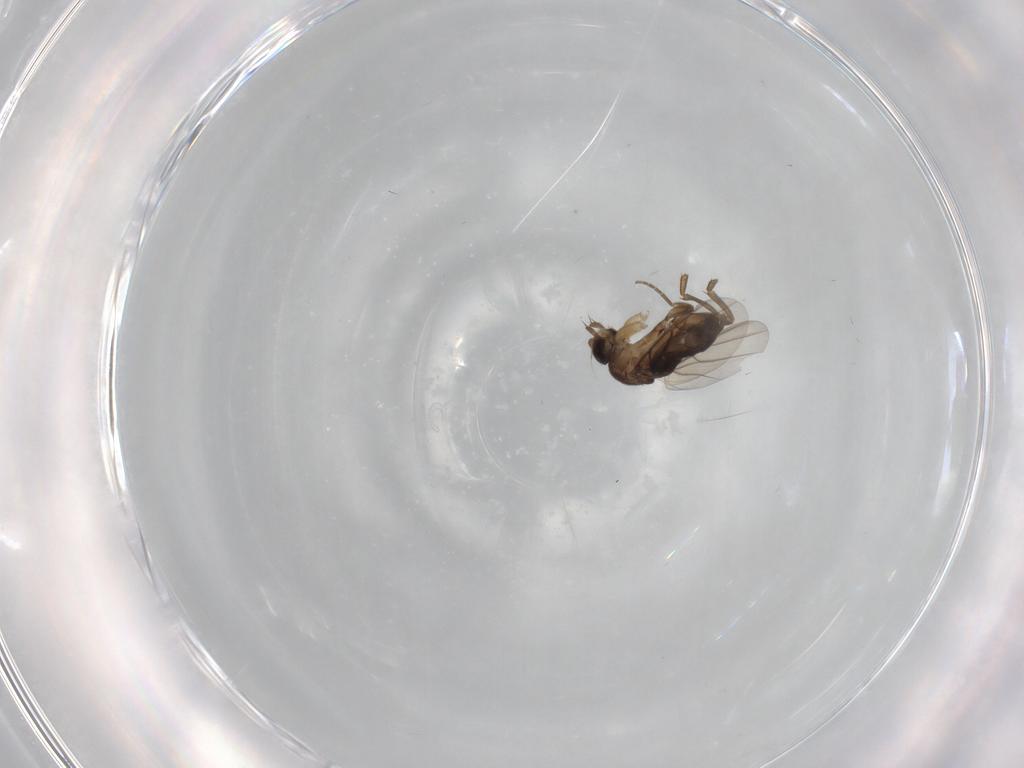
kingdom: Animalia
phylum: Arthropoda
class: Insecta
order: Diptera
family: Phoridae
